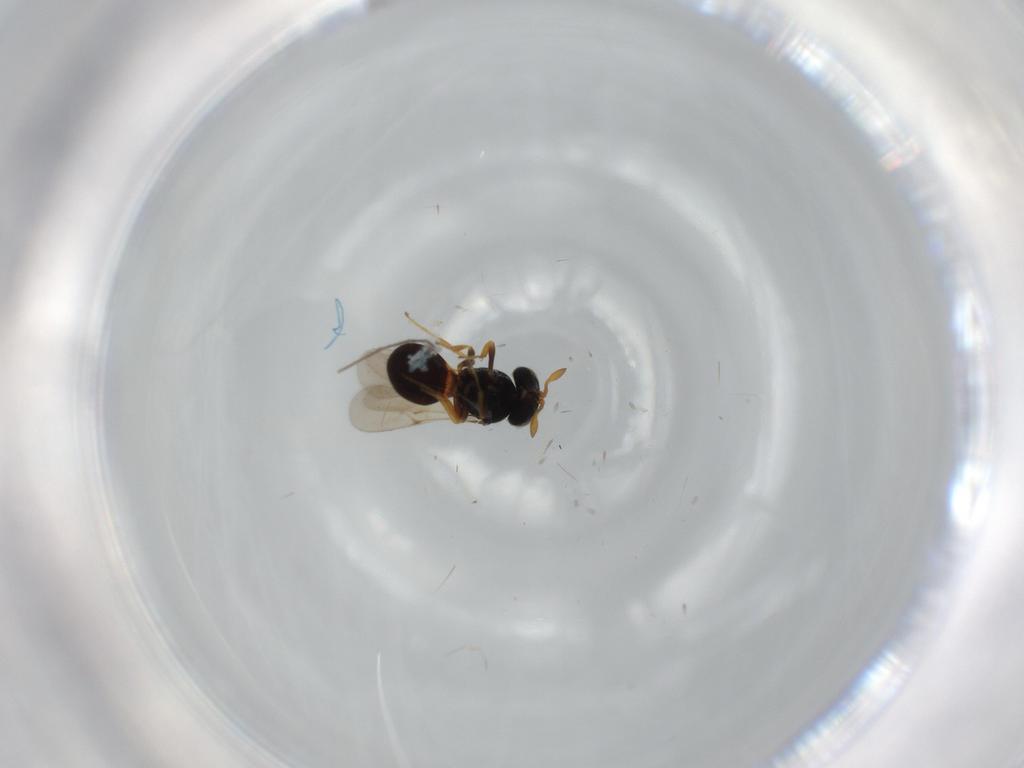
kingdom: Animalia
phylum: Arthropoda
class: Insecta
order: Hymenoptera
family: Scelionidae
